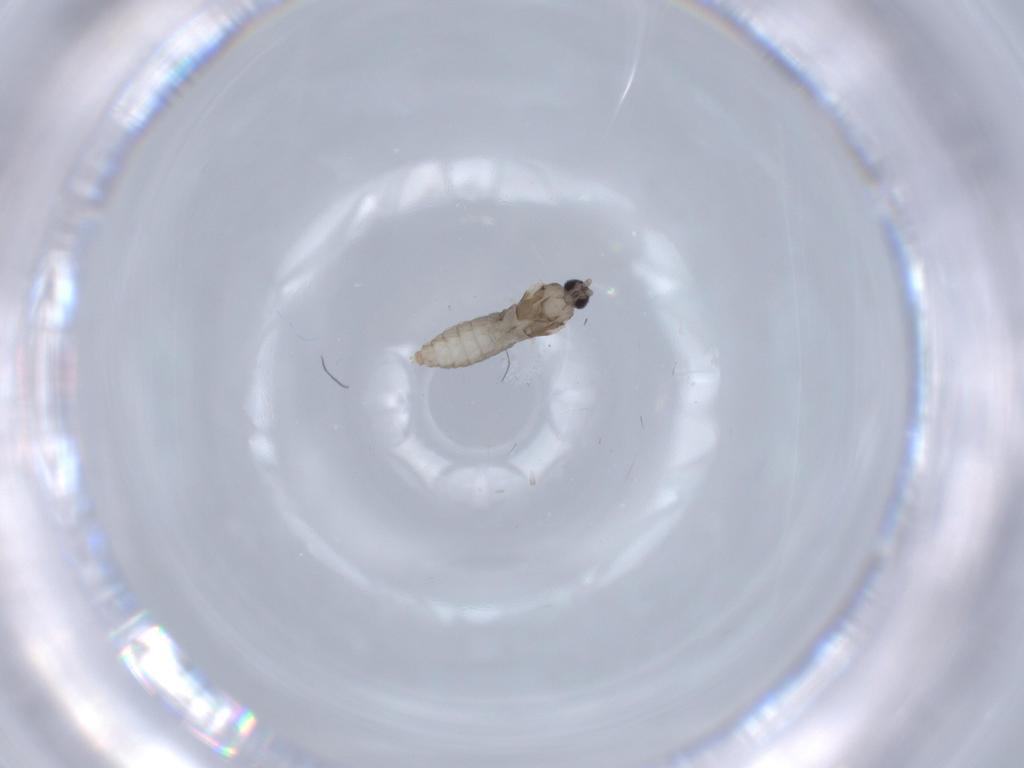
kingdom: Animalia
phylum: Arthropoda
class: Insecta
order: Diptera
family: Cecidomyiidae
